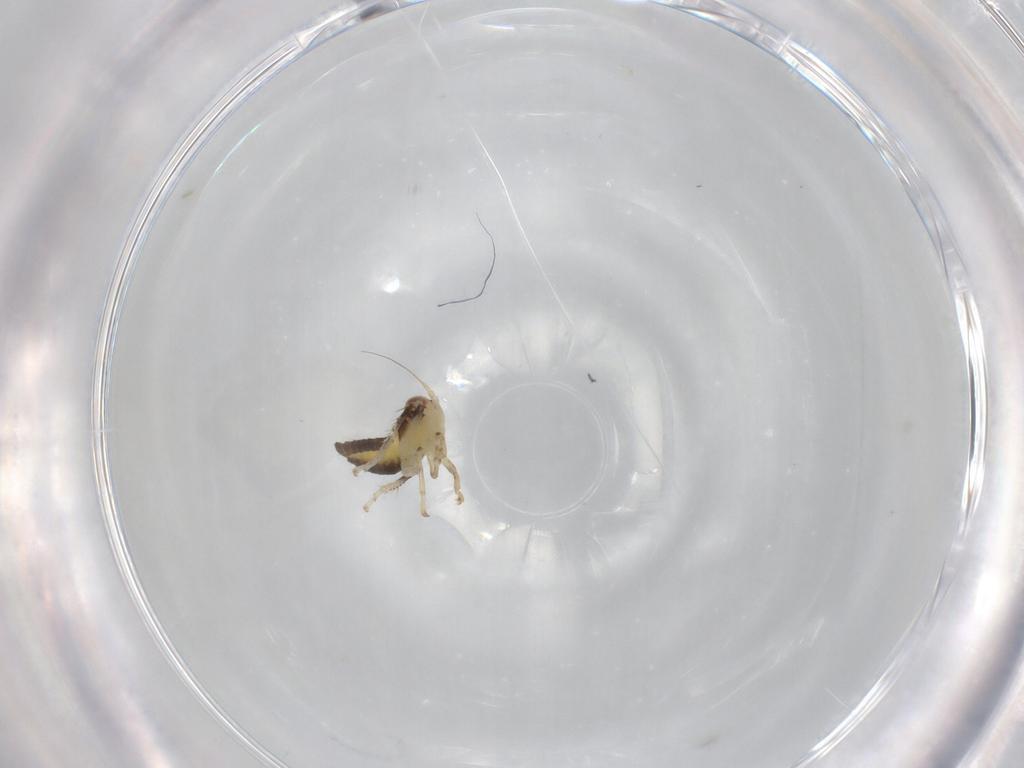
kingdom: Animalia
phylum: Arthropoda
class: Insecta
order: Hemiptera
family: Cicadellidae
